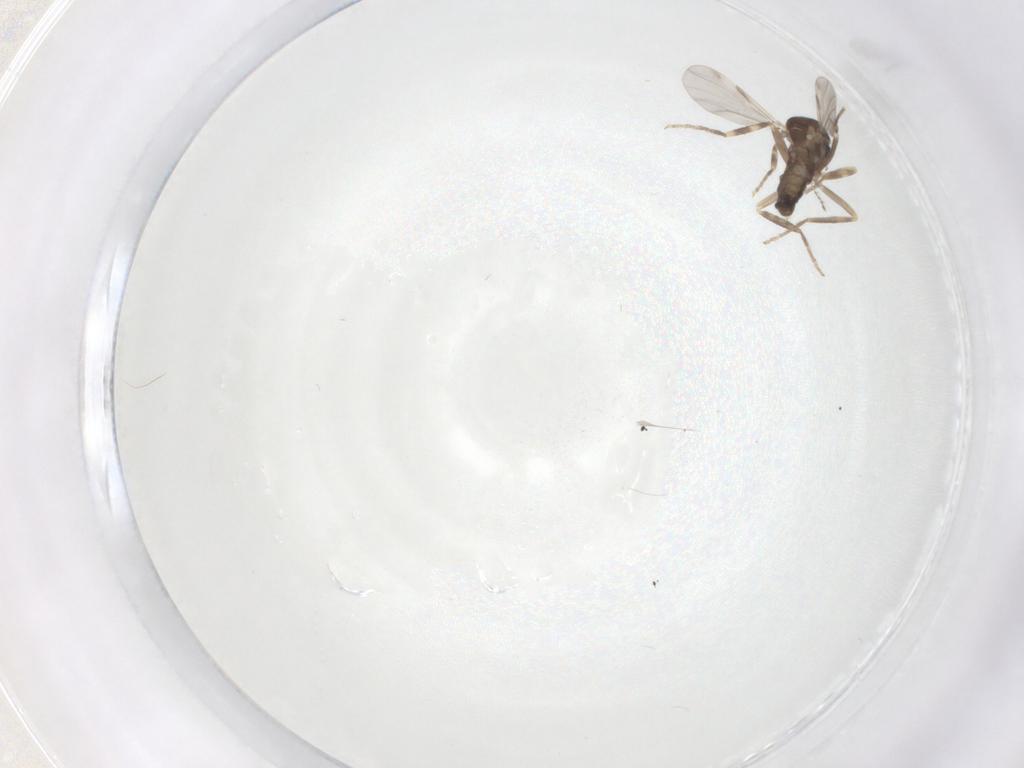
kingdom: Animalia
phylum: Arthropoda
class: Insecta
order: Diptera
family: Ceratopogonidae
